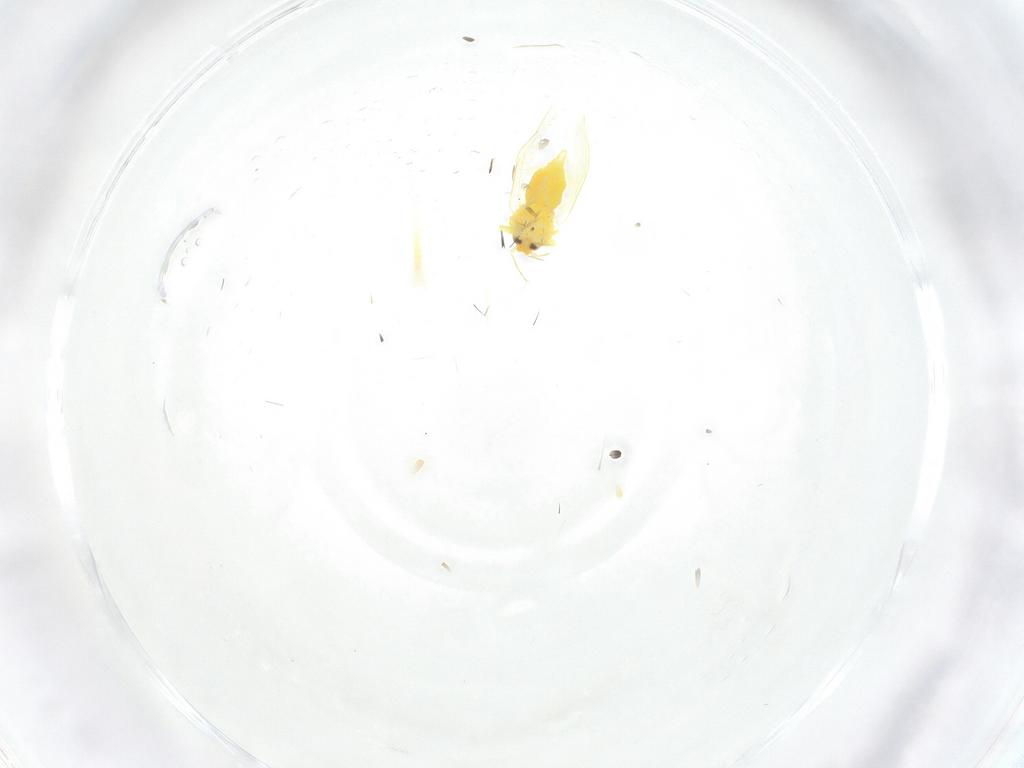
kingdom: Animalia
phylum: Arthropoda
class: Insecta
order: Hemiptera
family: Aleyrodidae
